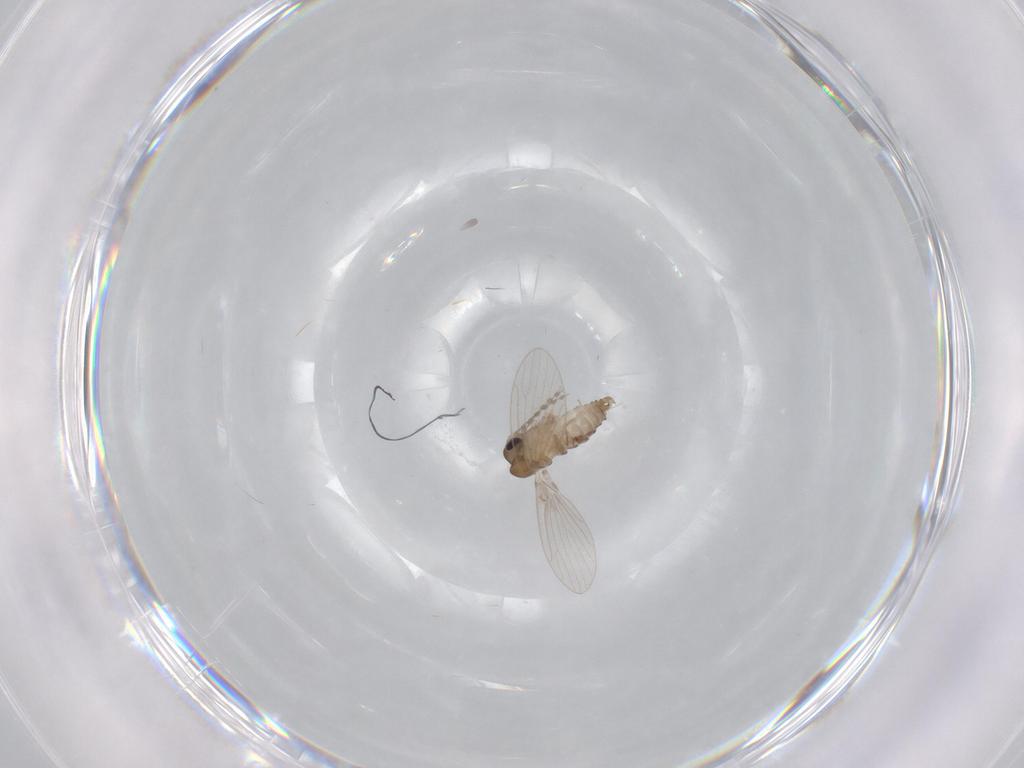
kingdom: Animalia
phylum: Arthropoda
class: Insecta
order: Diptera
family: Psychodidae
